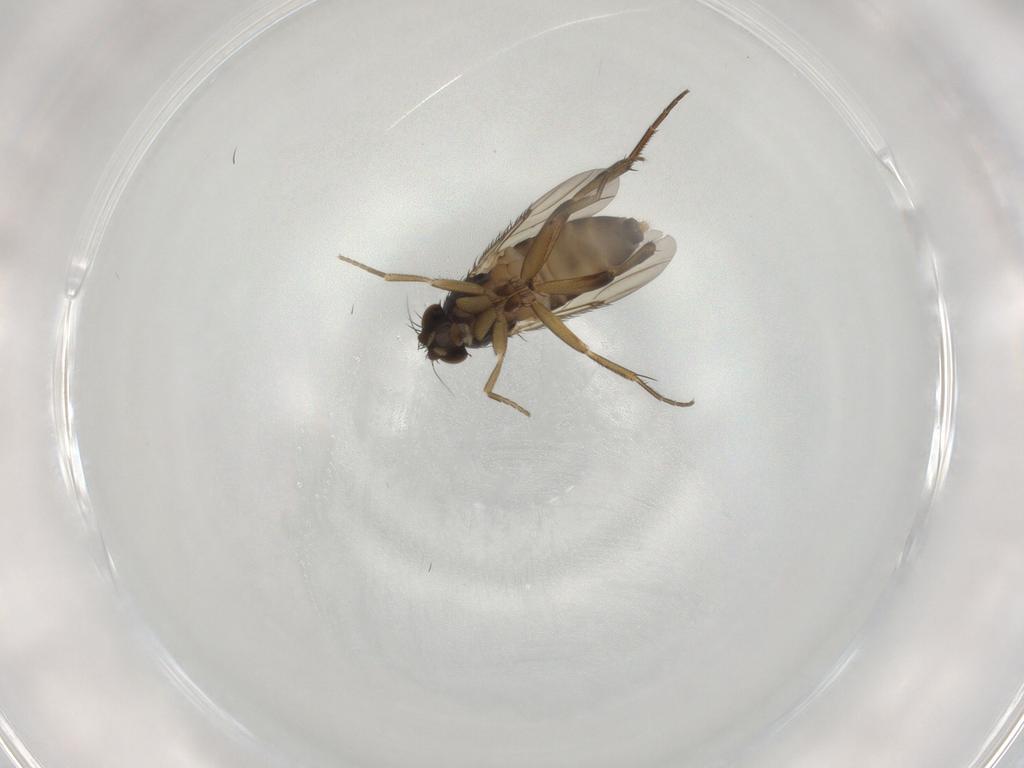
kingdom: Animalia
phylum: Arthropoda
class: Insecta
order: Diptera
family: Phoridae
